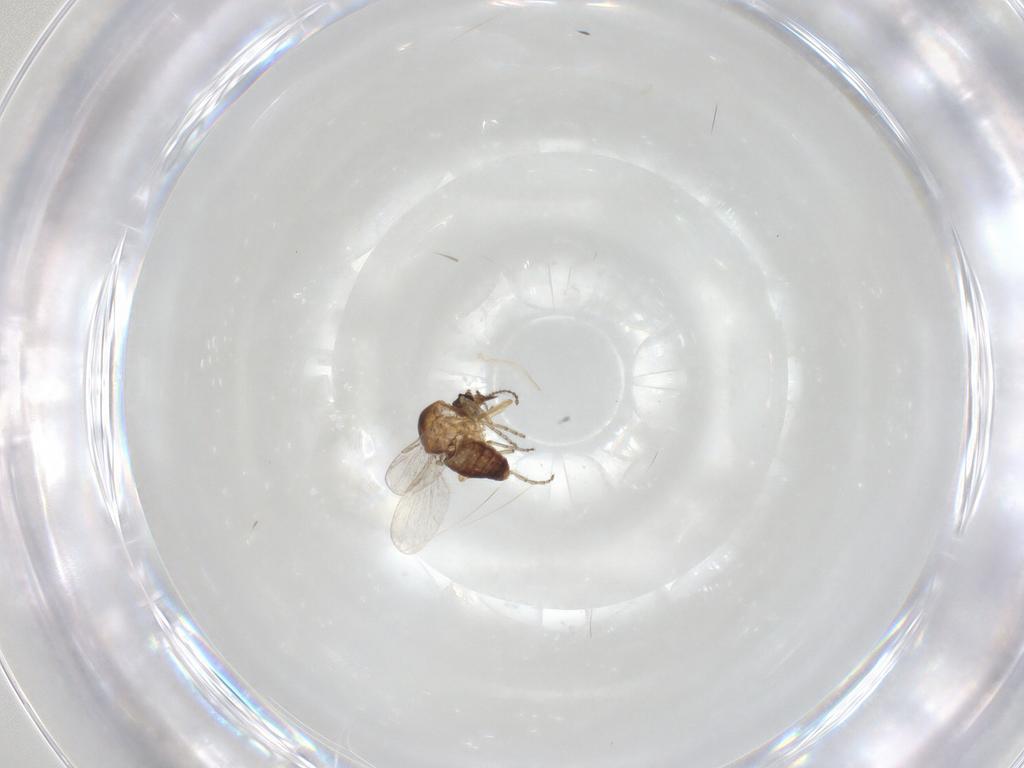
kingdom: Animalia
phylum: Arthropoda
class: Insecta
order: Diptera
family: Ceratopogonidae
